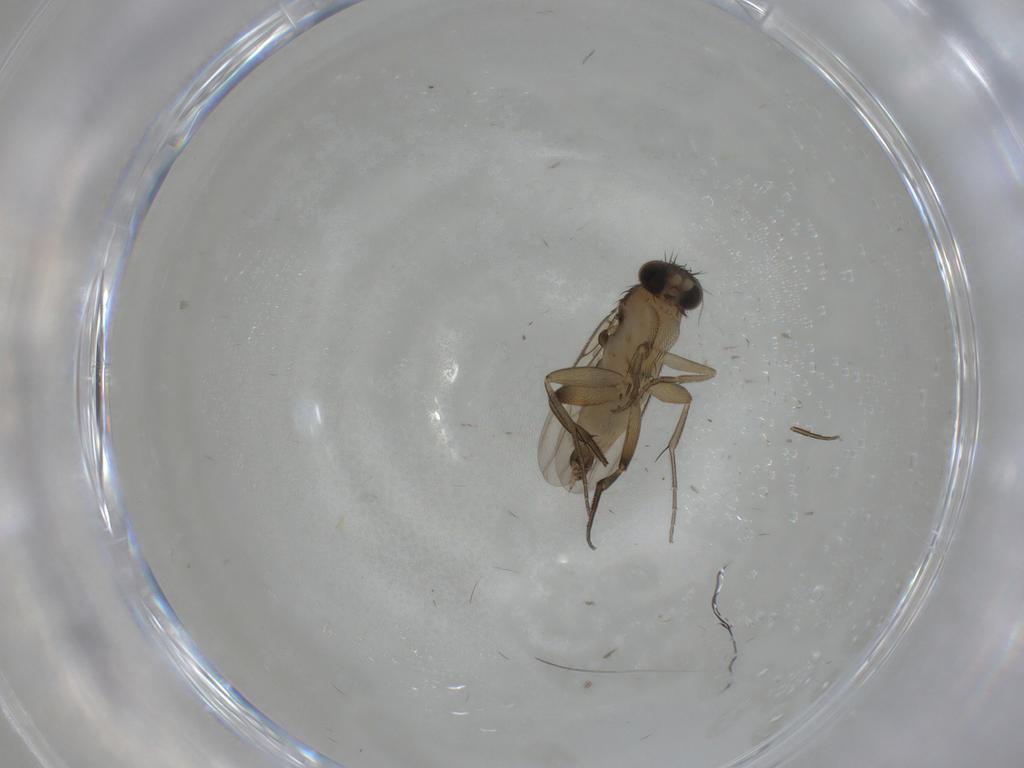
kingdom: Animalia
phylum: Arthropoda
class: Insecta
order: Diptera
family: Phoridae
